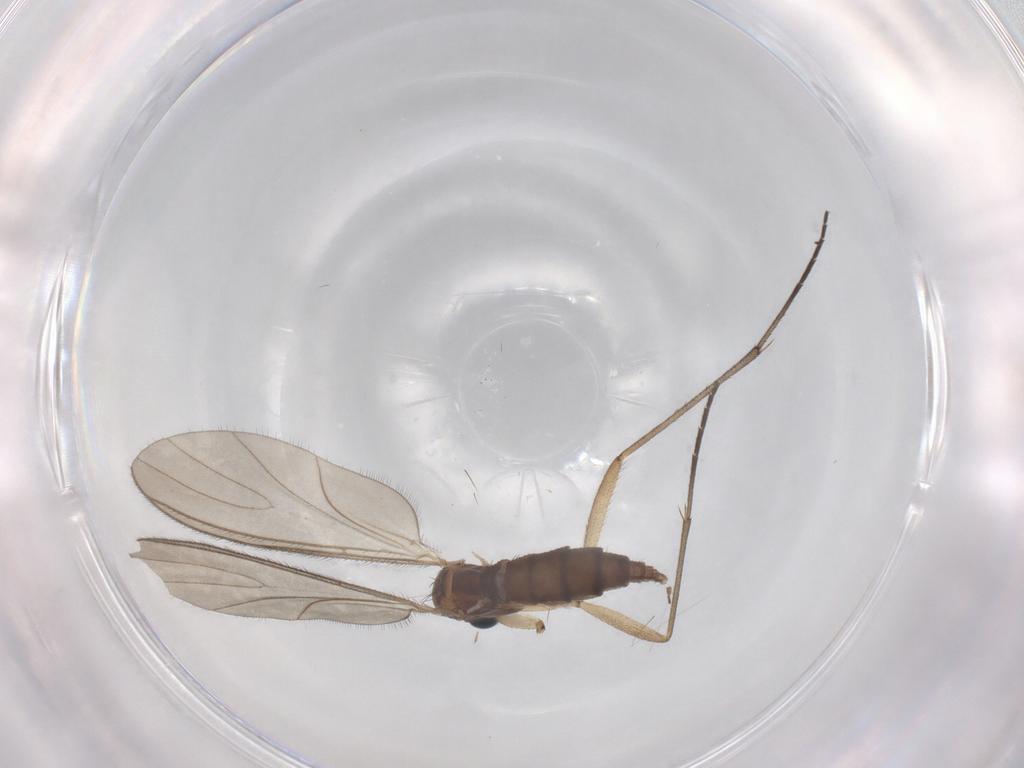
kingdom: Animalia
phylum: Arthropoda
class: Insecta
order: Diptera
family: Sciaridae
